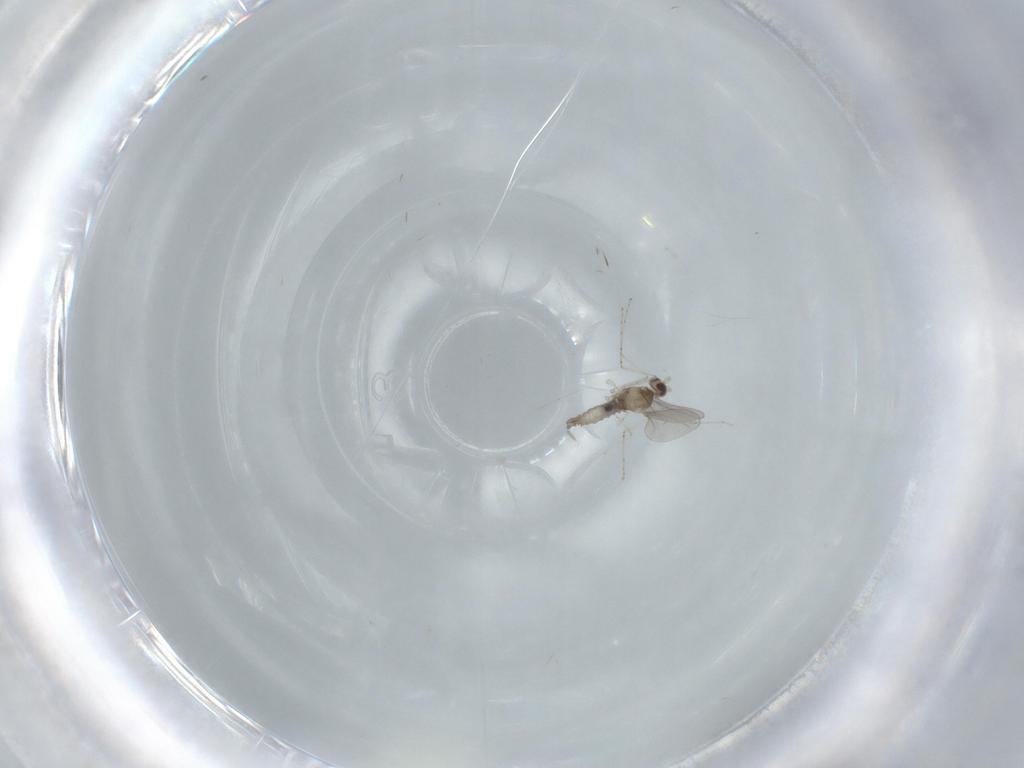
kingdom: Animalia
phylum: Arthropoda
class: Insecta
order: Diptera
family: Cecidomyiidae
